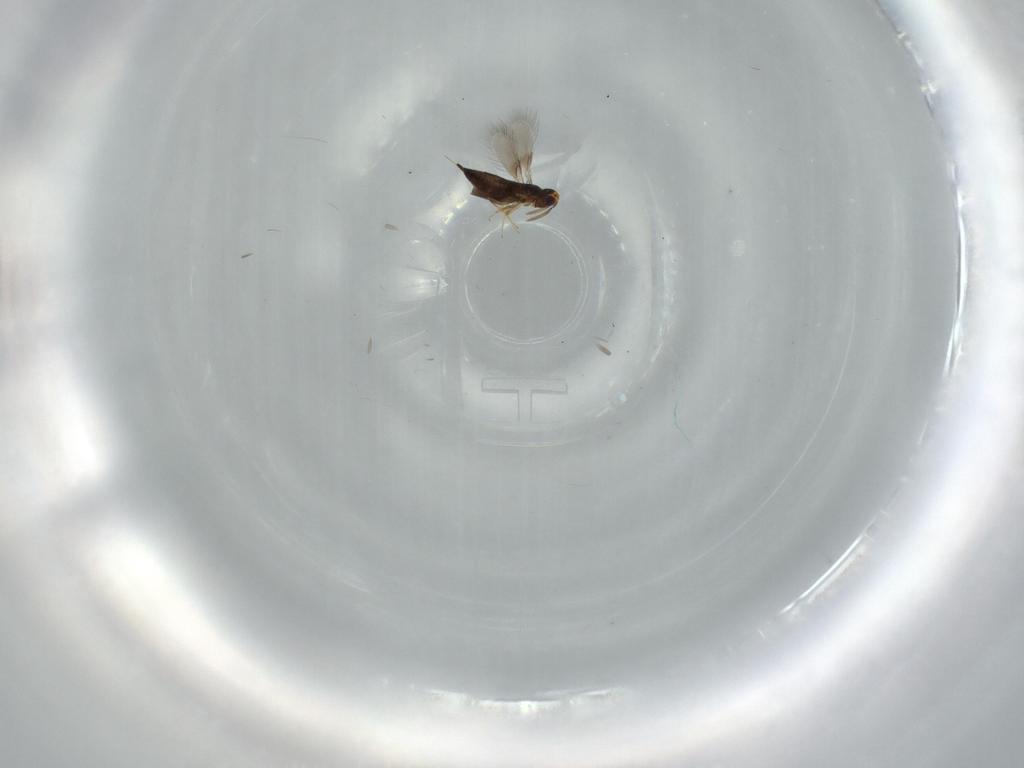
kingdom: Animalia
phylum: Arthropoda
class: Insecta
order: Hymenoptera
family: Signiphoridae
